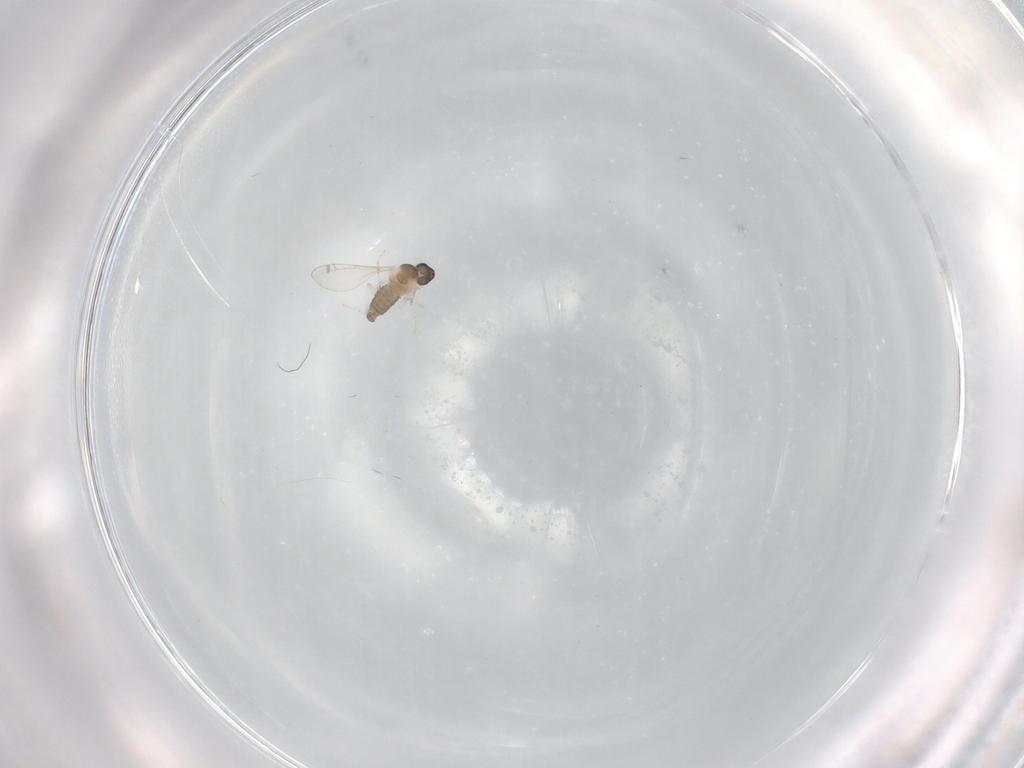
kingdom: Animalia
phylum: Arthropoda
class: Insecta
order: Diptera
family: Cecidomyiidae
